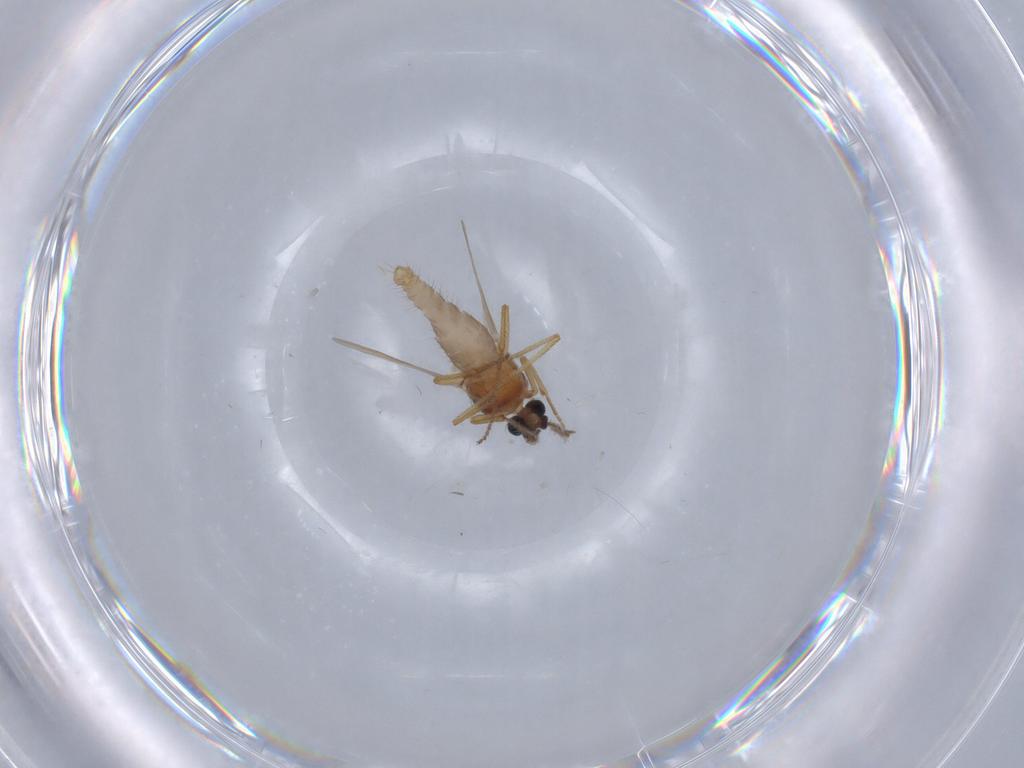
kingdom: Animalia
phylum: Arthropoda
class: Insecta
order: Diptera
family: Ceratopogonidae
